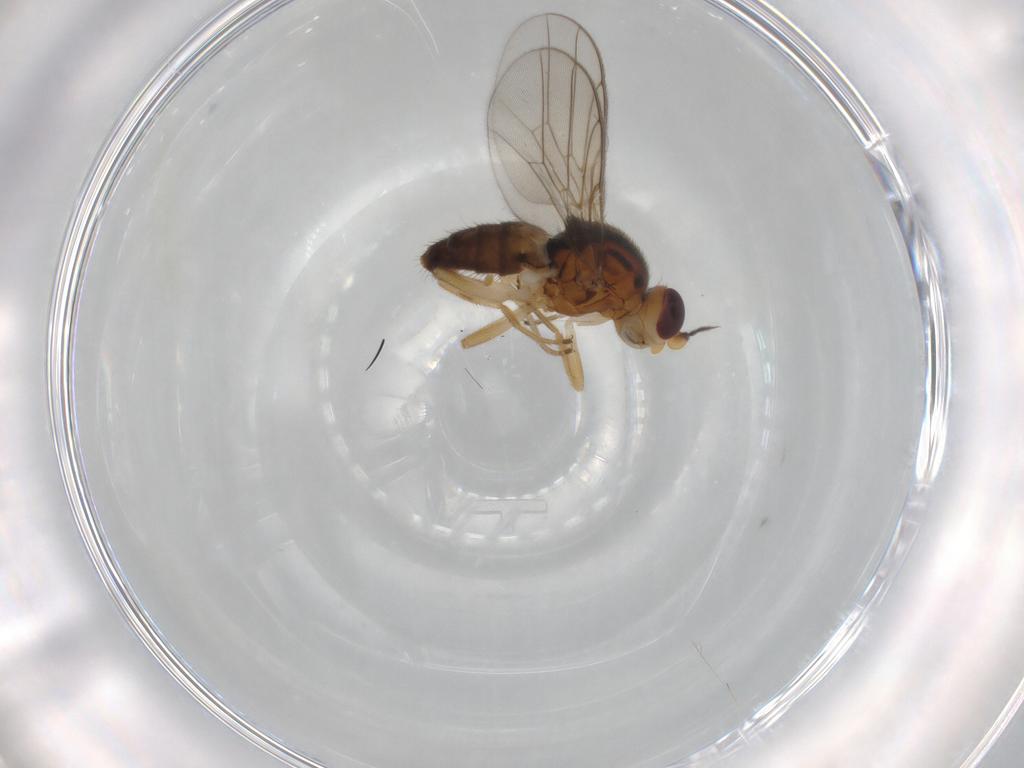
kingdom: Animalia
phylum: Arthropoda
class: Insecta
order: Diptera
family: Chloropidae
